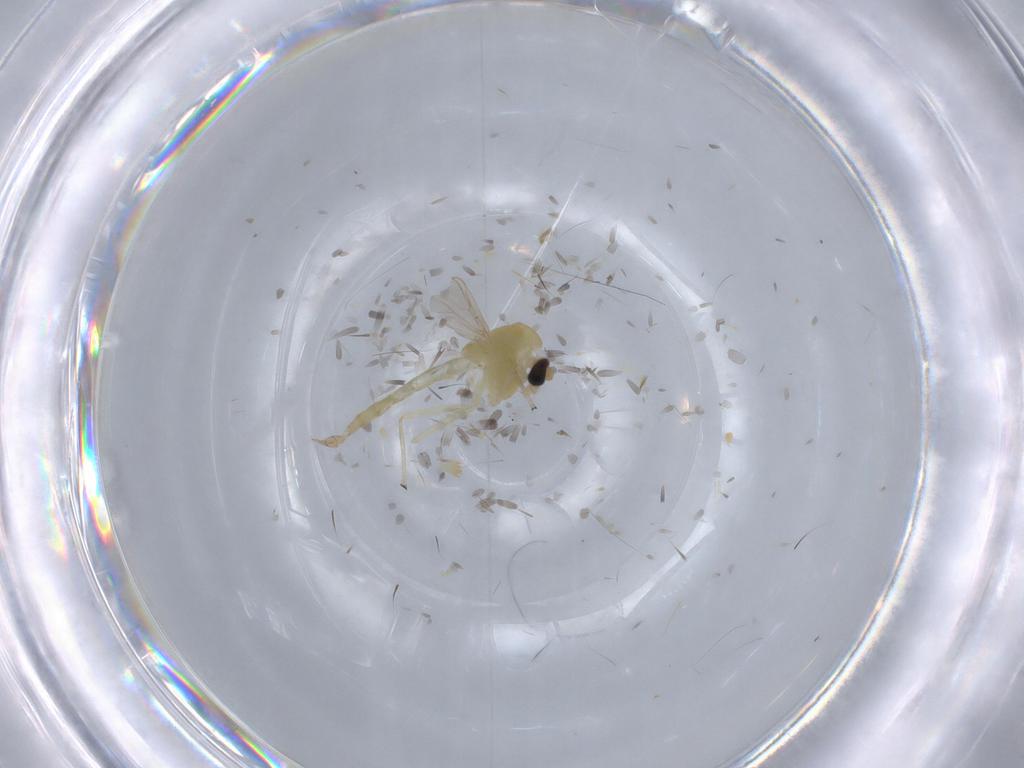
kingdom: Animalia
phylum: Arthropoda
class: Insecta
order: Diptera
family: Chironomidae
